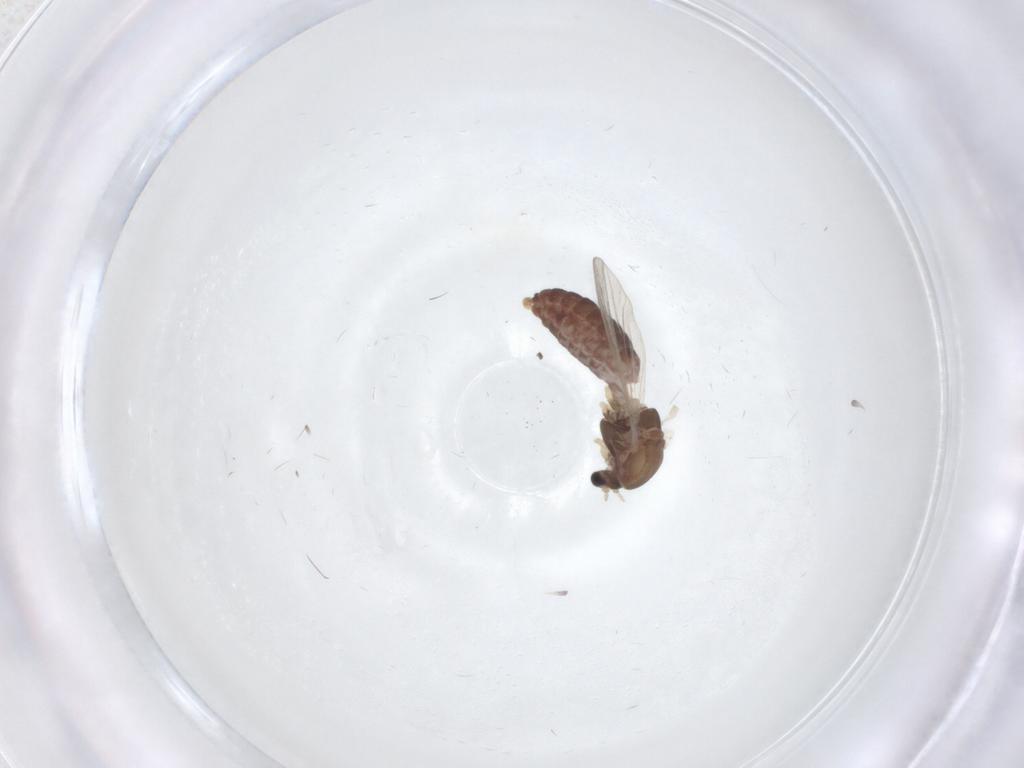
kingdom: Animalia
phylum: Arthropoda
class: Insecta
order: Diptera
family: Chironomidae
